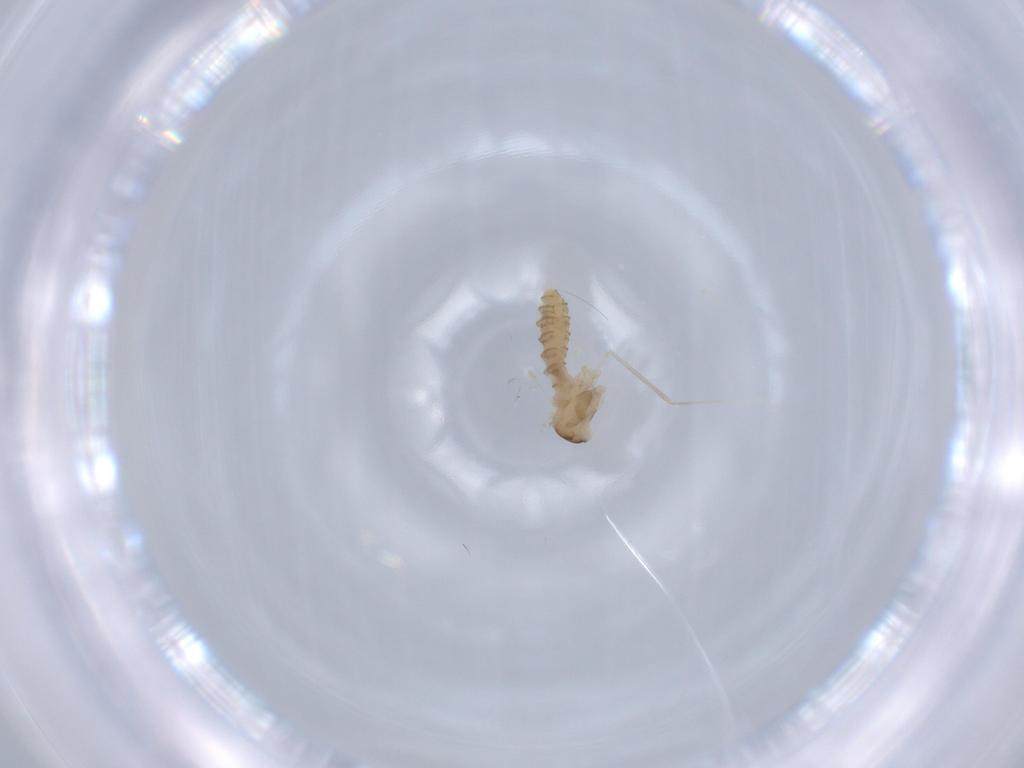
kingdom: Animalia
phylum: Arthropoda
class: Insecta
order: Diptera
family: Cecidomyiidae
